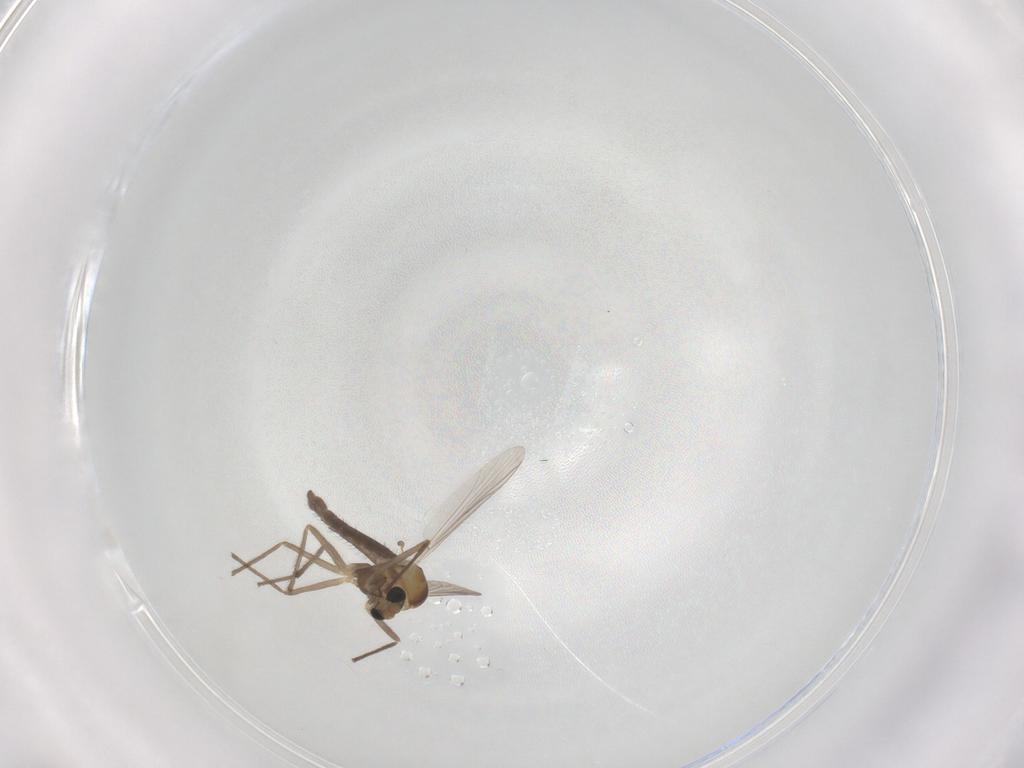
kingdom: Animalia
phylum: Arthropoda
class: Insecta
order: Diptera
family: Chironomidae
